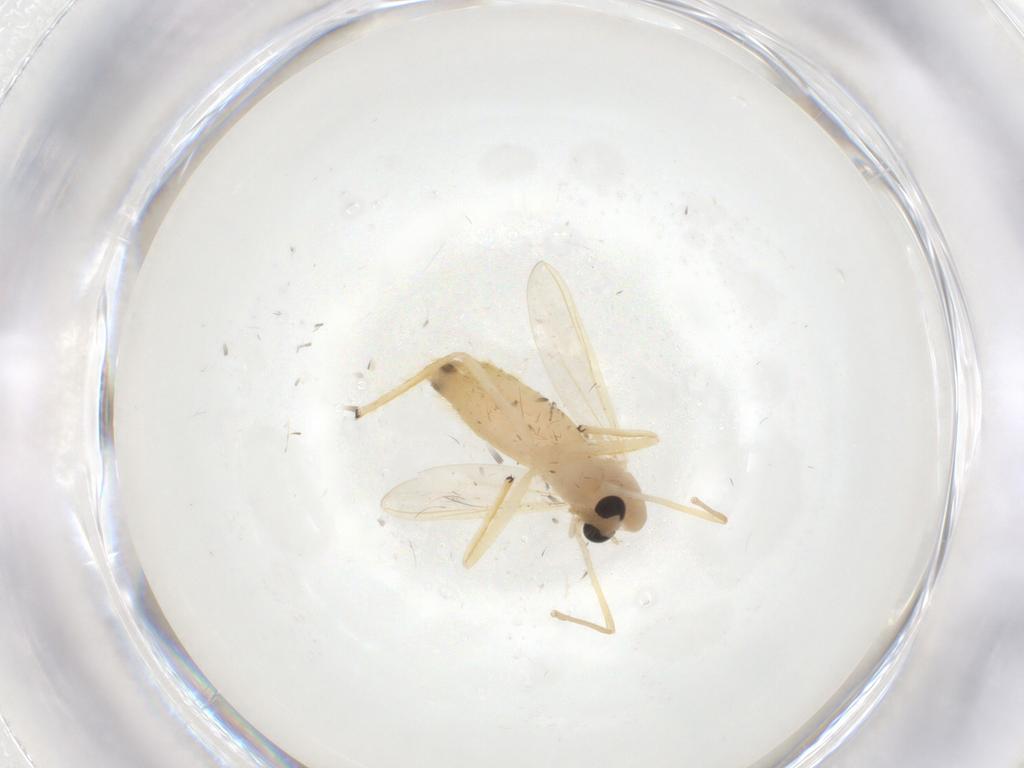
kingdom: Animalia
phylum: Arthropoda
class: Insecta
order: Diptera
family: Chironomidae
